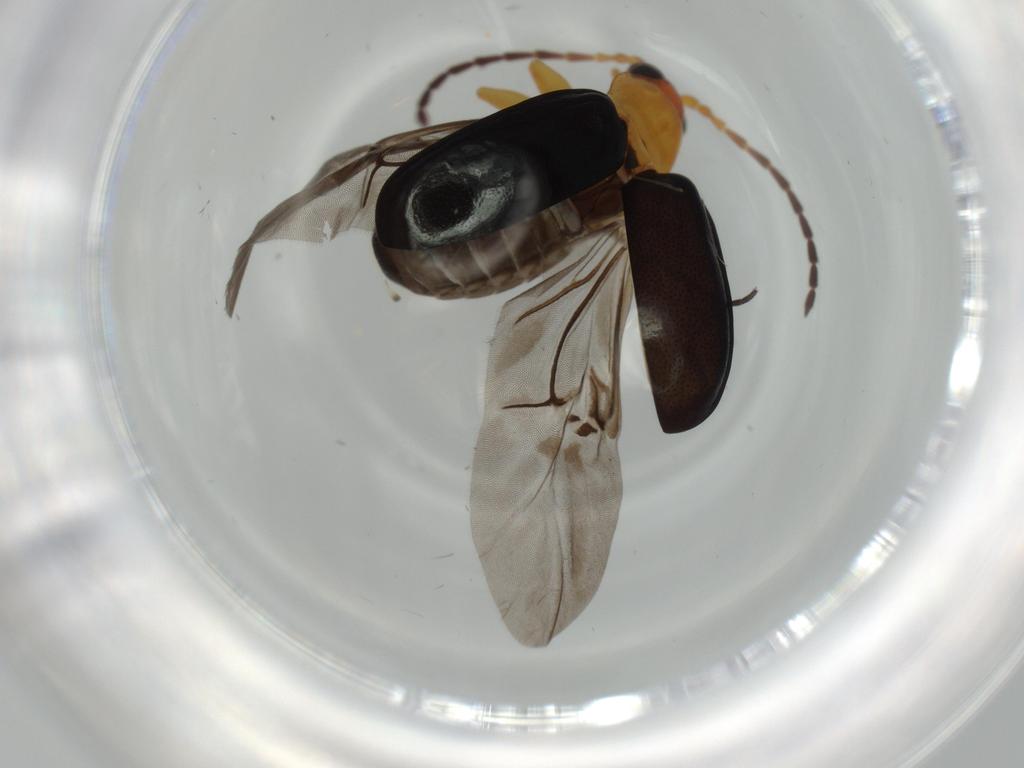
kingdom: Animalia
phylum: Arthropoda
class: Insecta
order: Coleoptera
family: Chrysomelidae
